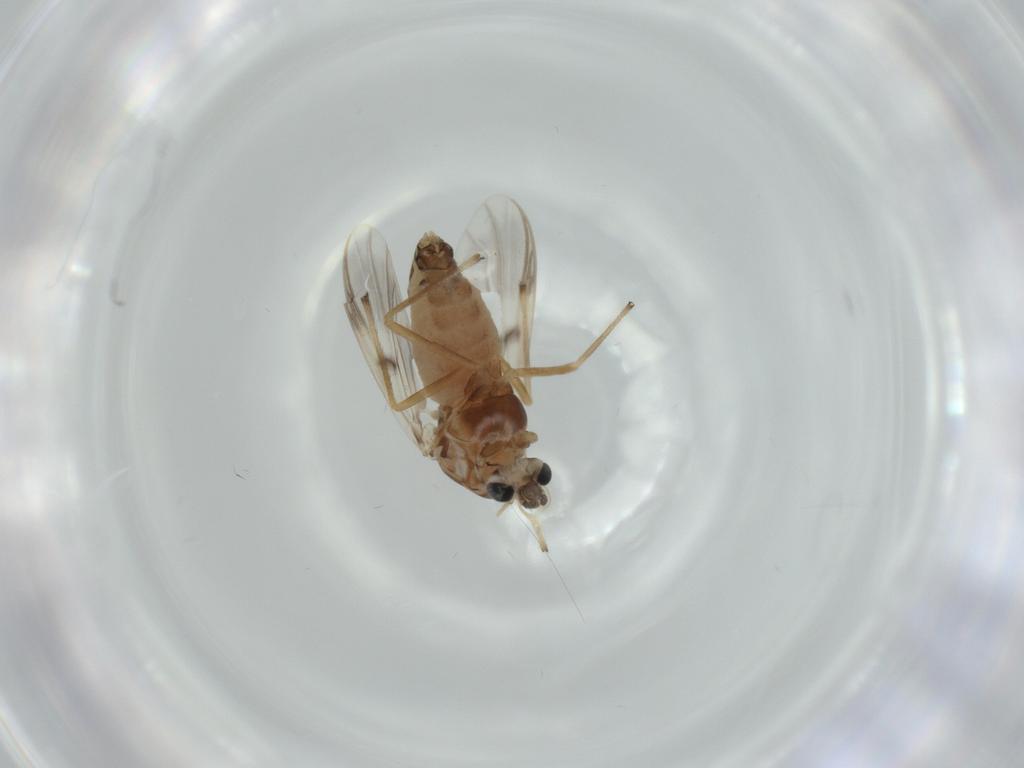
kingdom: Animalia
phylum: Arthropoda
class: Insecta
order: Diptera
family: Chironomidae
